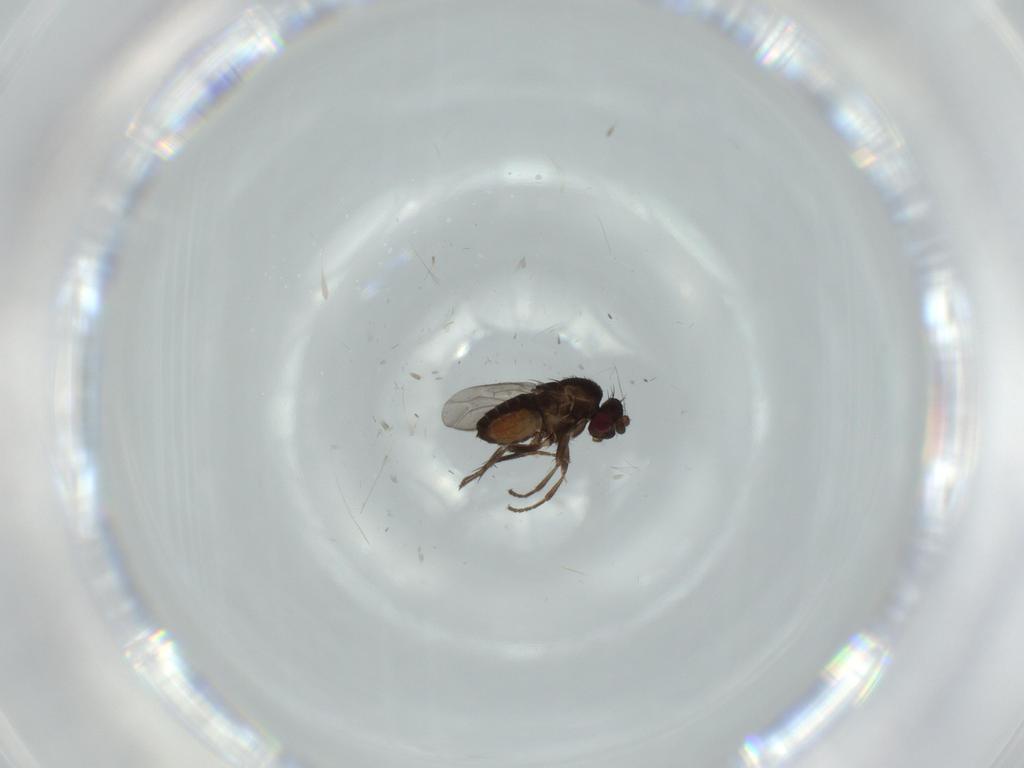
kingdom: Animalia
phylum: Arthropoda
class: Insecta
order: Diptera
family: Sphaeroceridae
